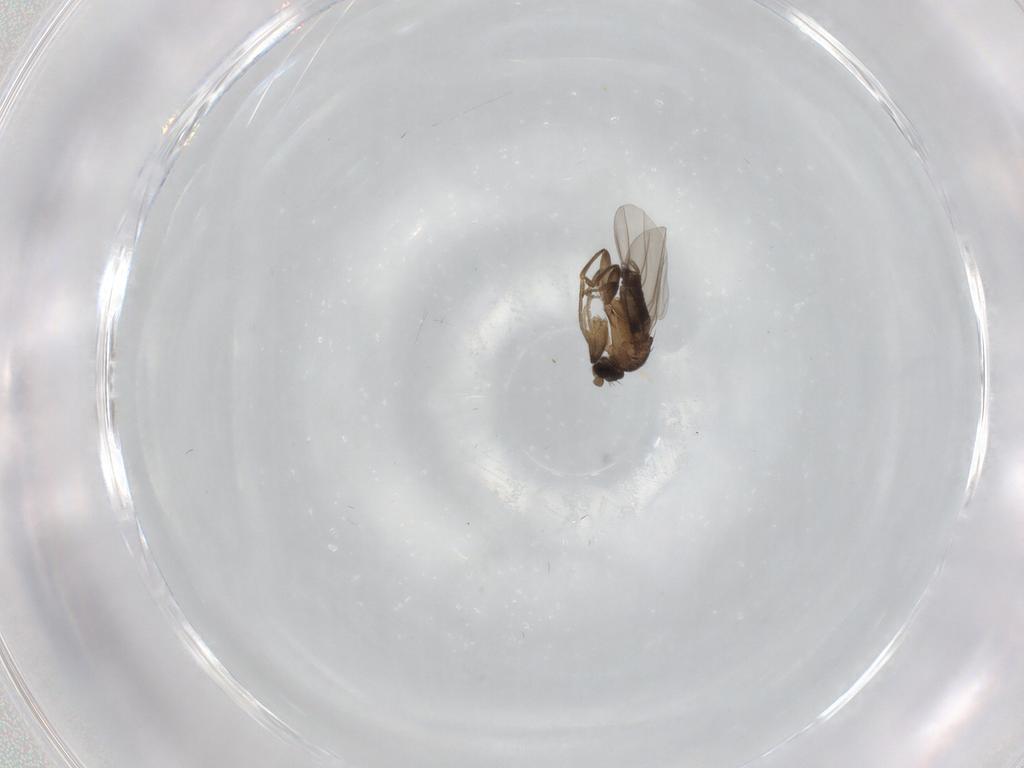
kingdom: Animalia
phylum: Arthropoda
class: Insecta
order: Diptera
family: Phoridae
